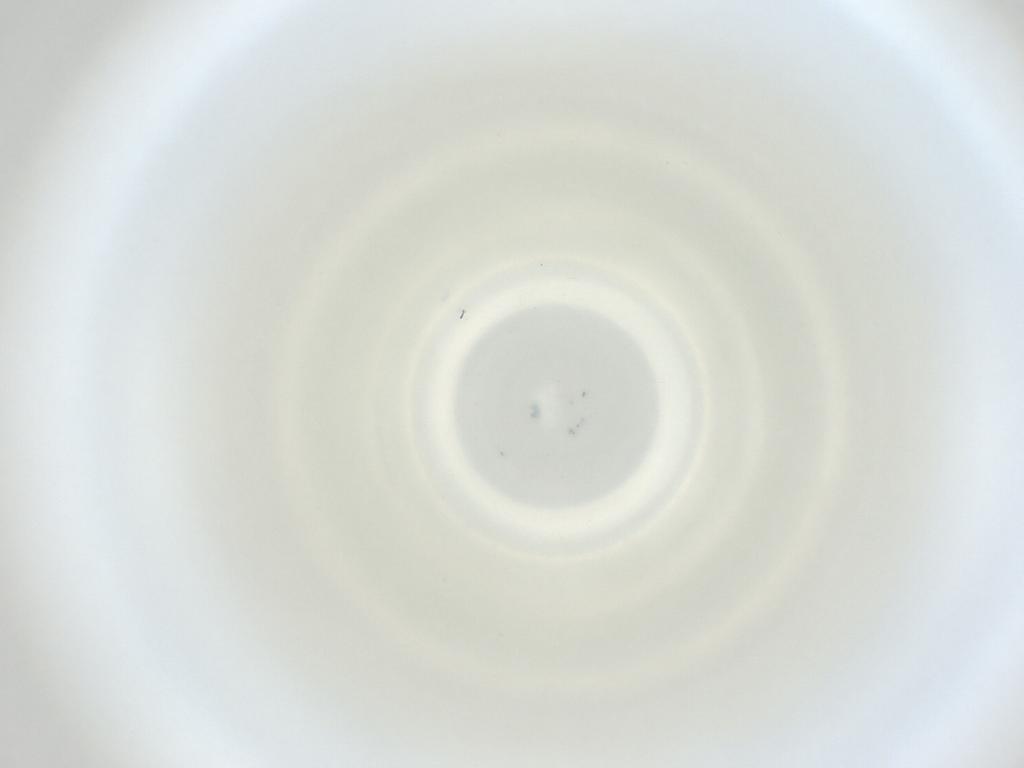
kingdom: Animalia
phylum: Arthropoda
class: Insecta
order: Diptera
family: Cecidomyiidae
